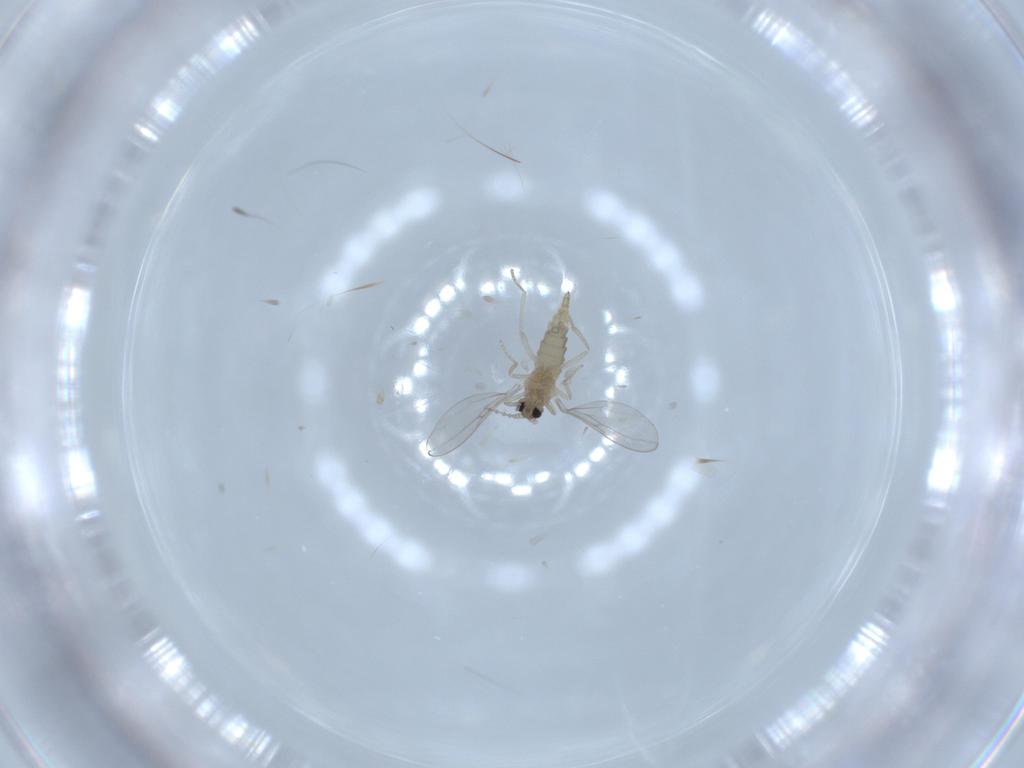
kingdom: Animalia
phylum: Arthropoda
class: Insecta
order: Diptera
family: Cecidomyiidae
